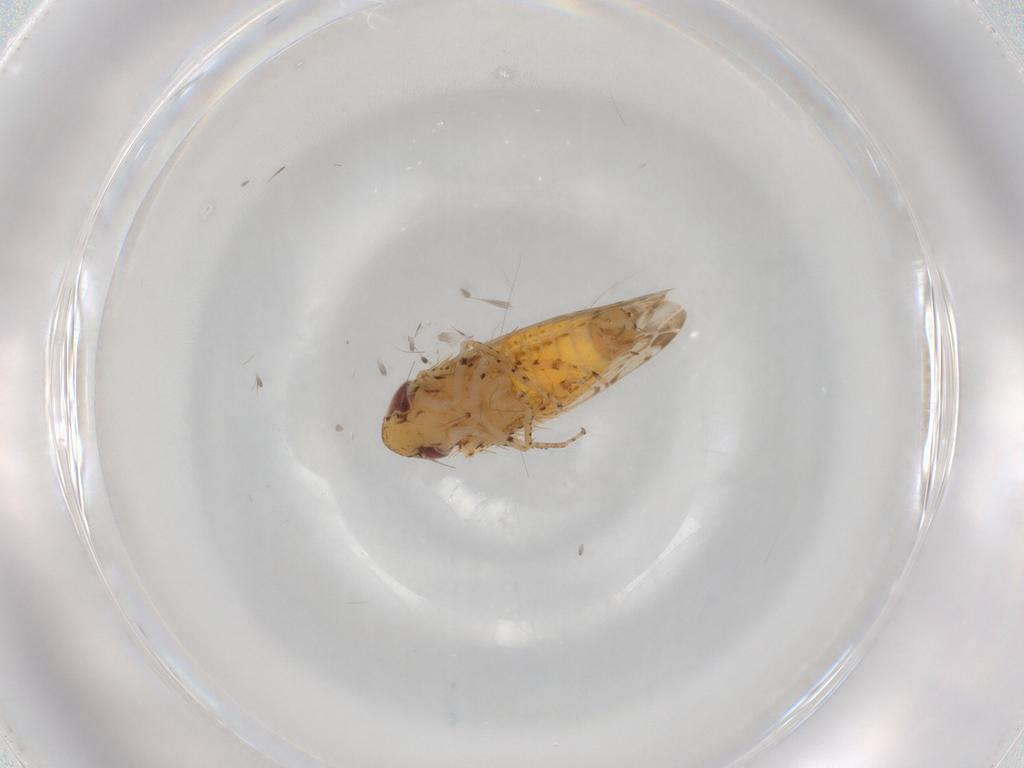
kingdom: Animalia
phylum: Arthropoda
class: Insecta
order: Hemiptera
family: Cicadellidae
